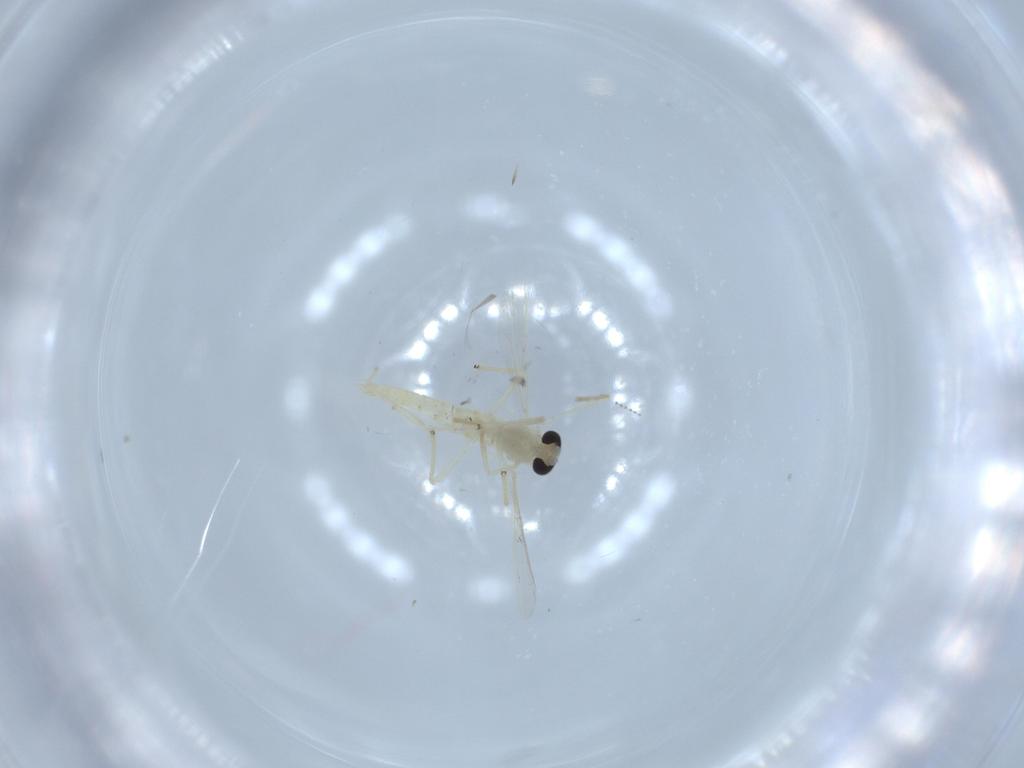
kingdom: Animalia
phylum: Arthropoda
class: Insecta
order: Diptera
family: Chironomidae
